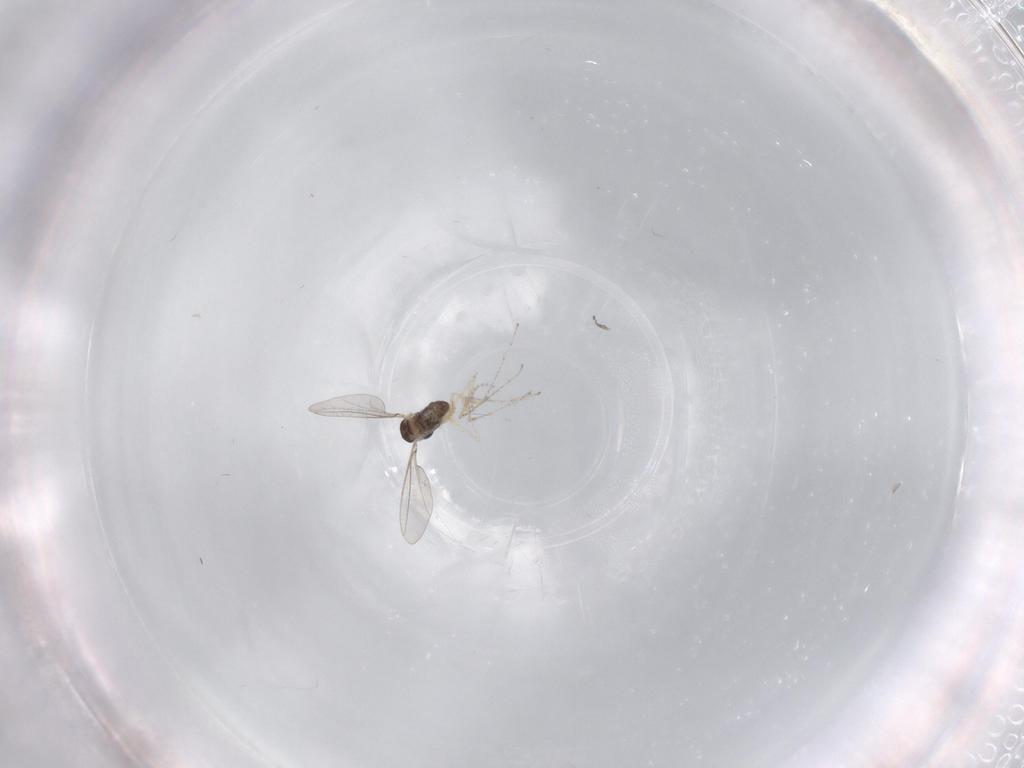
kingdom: Animalia
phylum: Arthropoda
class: Insecta
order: Diptera
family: Cecidomyiidae
